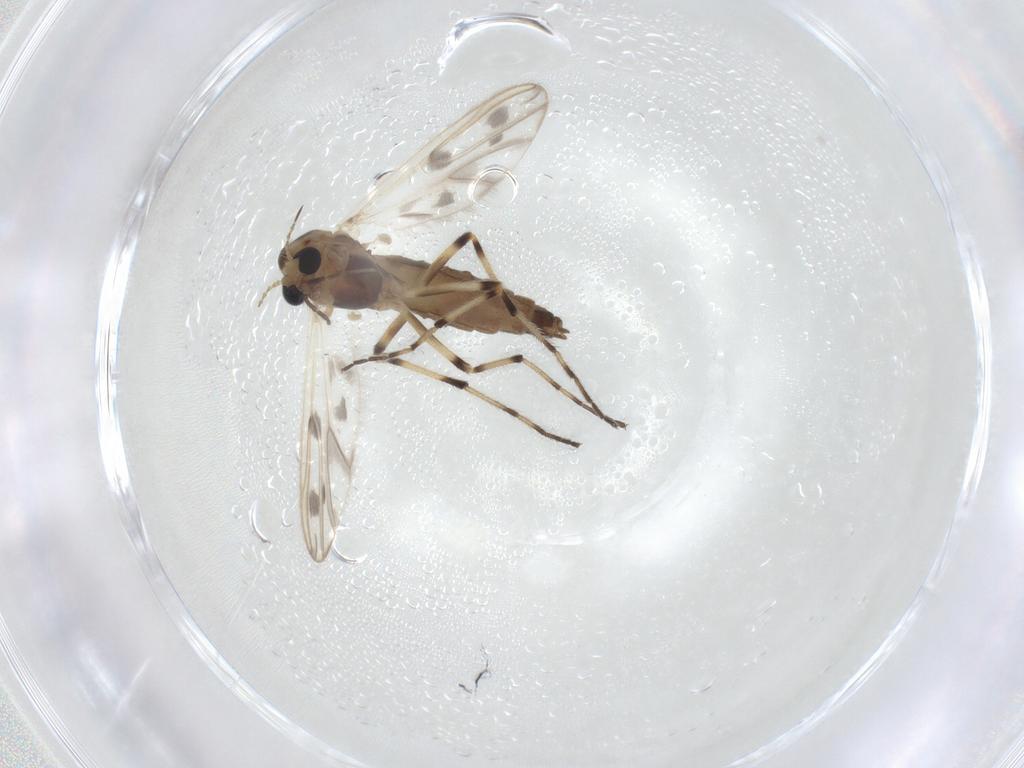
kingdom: Animalia
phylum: Arthropoda
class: Insecta
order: Diptera
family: Chironomidae
